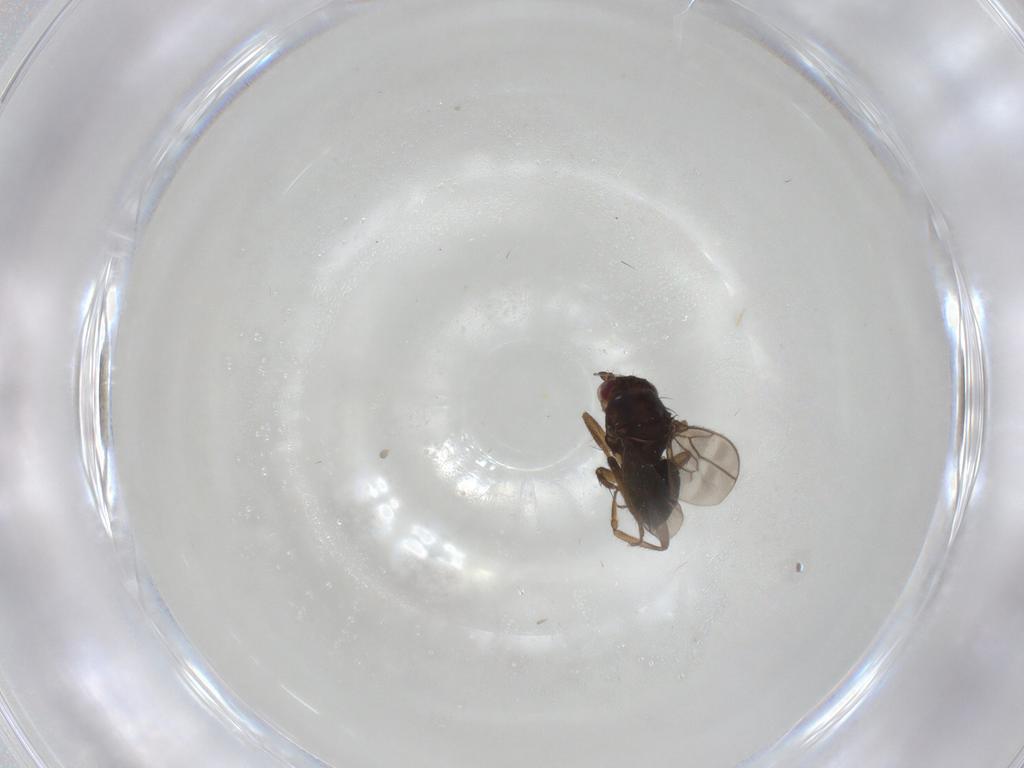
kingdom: Animalia
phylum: Arthropoda
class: Insecta
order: Diptera
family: Sphaeroceridae
